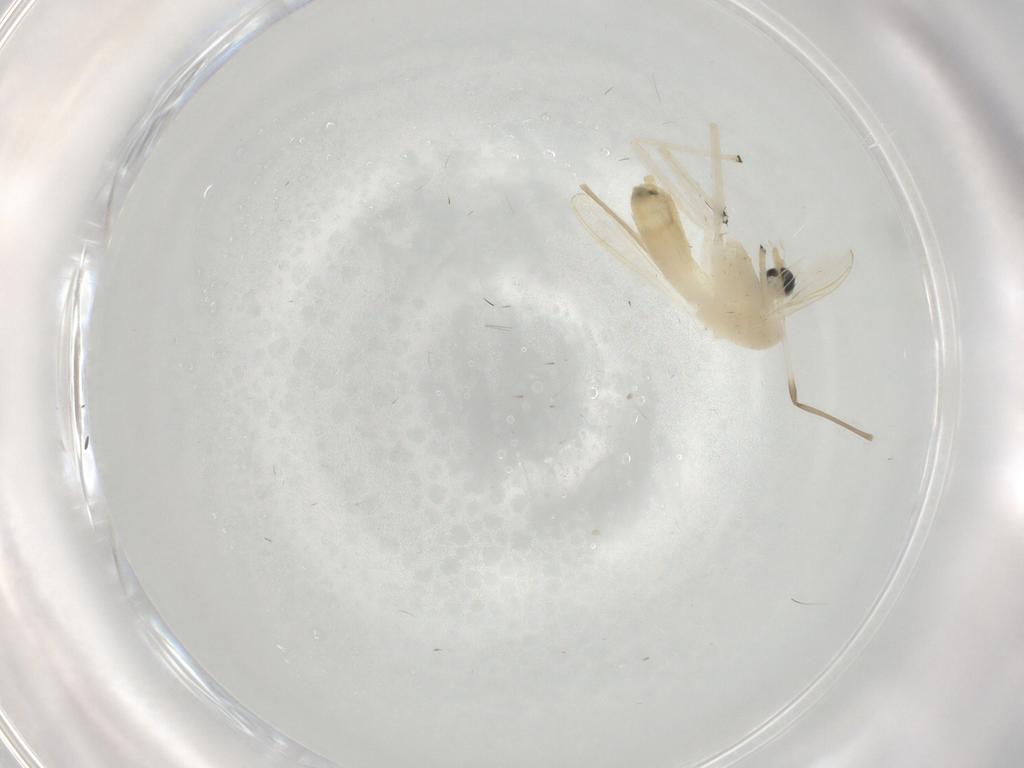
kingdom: Animalia
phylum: Arthropoda
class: Insecta
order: Diptera
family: Chironomidae
